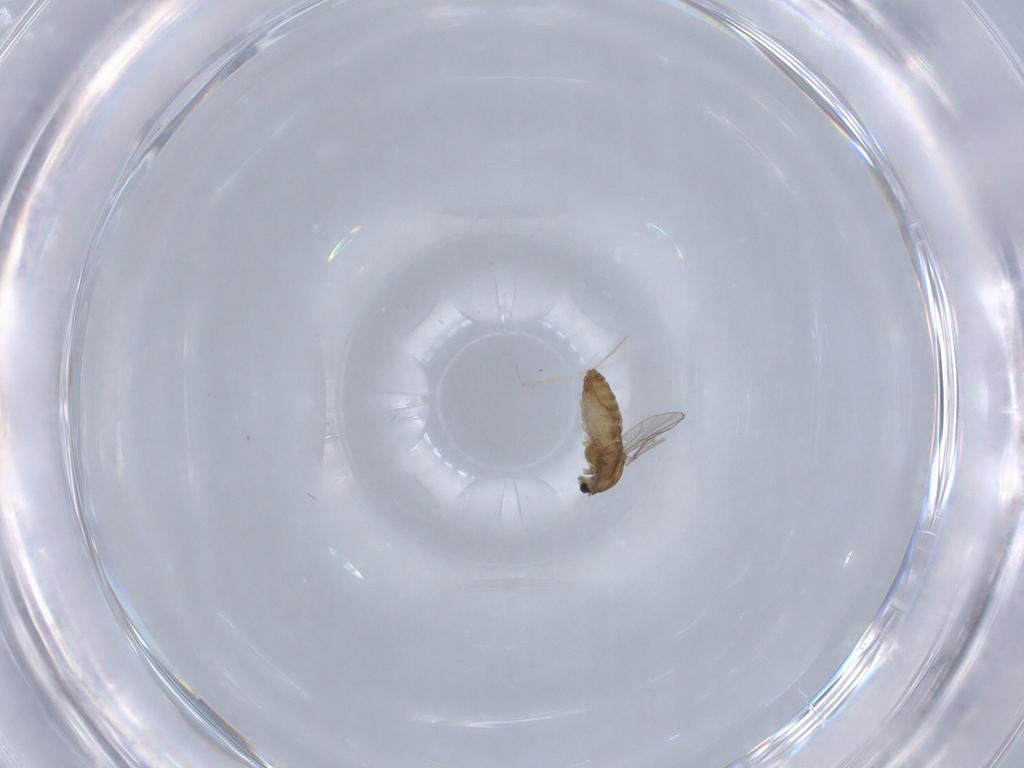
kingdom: Animalia
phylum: Arthropoda
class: Insecta
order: Diptera
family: Chironomidae
